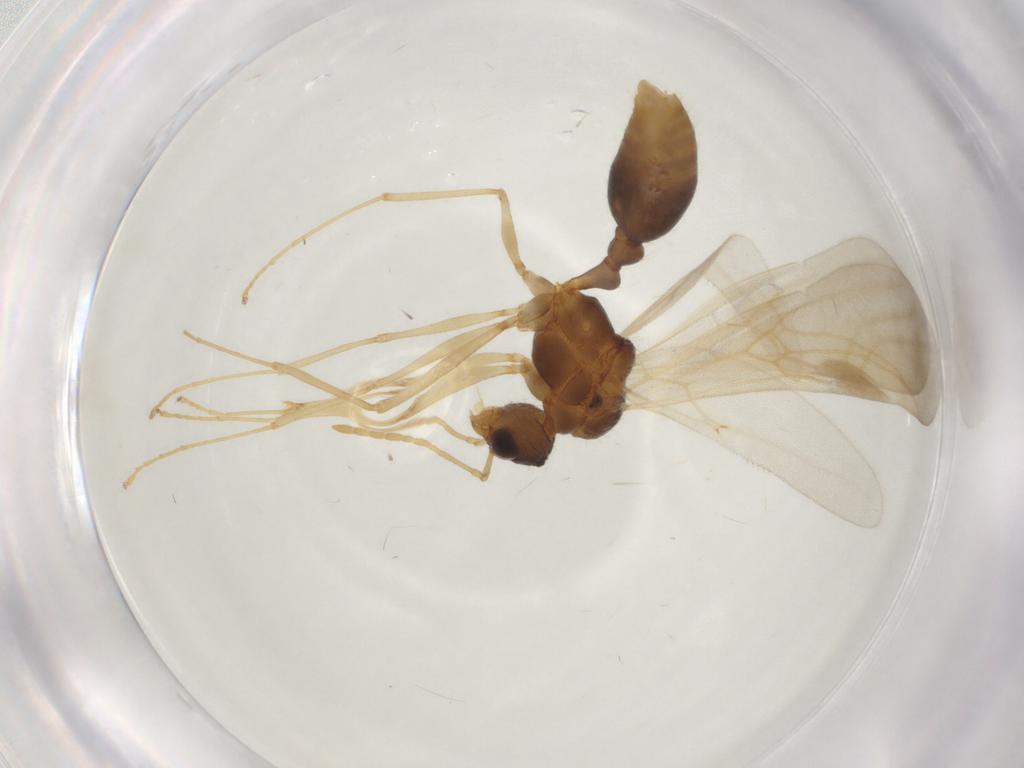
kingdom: Animalia
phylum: Arthropoda
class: Insecta
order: Hymenoptera
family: Formicidae
